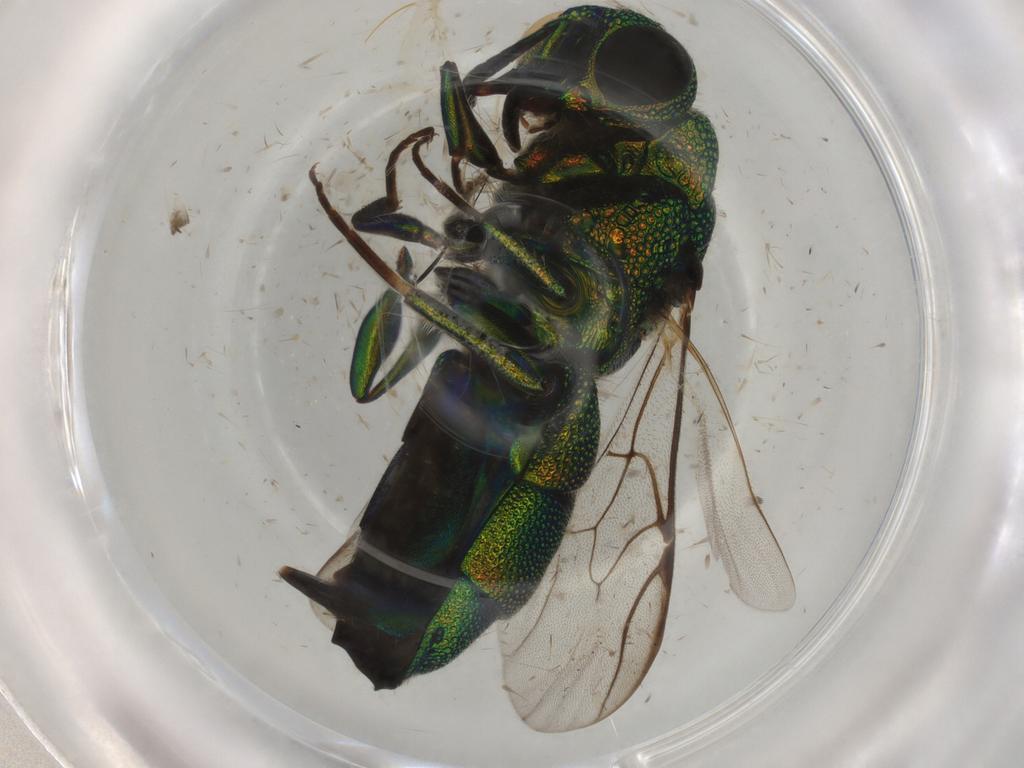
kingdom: Animalia
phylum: Arthropoda
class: Insecta
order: Hymenoptera
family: Chrysididae
